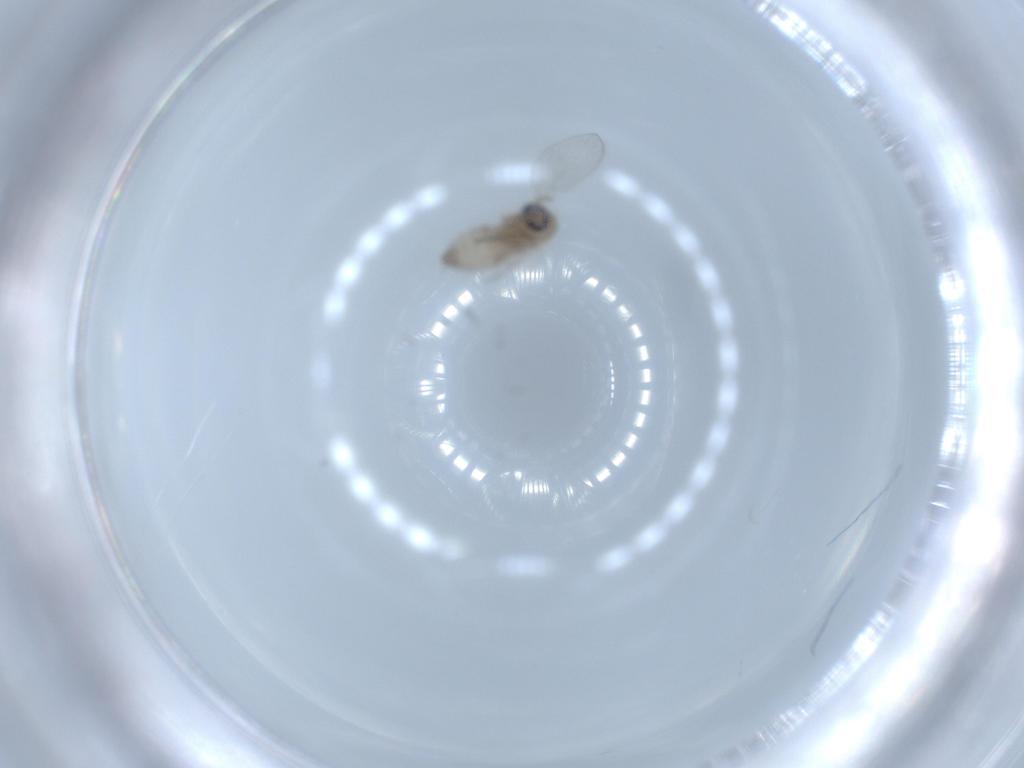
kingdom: Animalia
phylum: Arthropoda
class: Insecta
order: Diptera
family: Psychodidae
